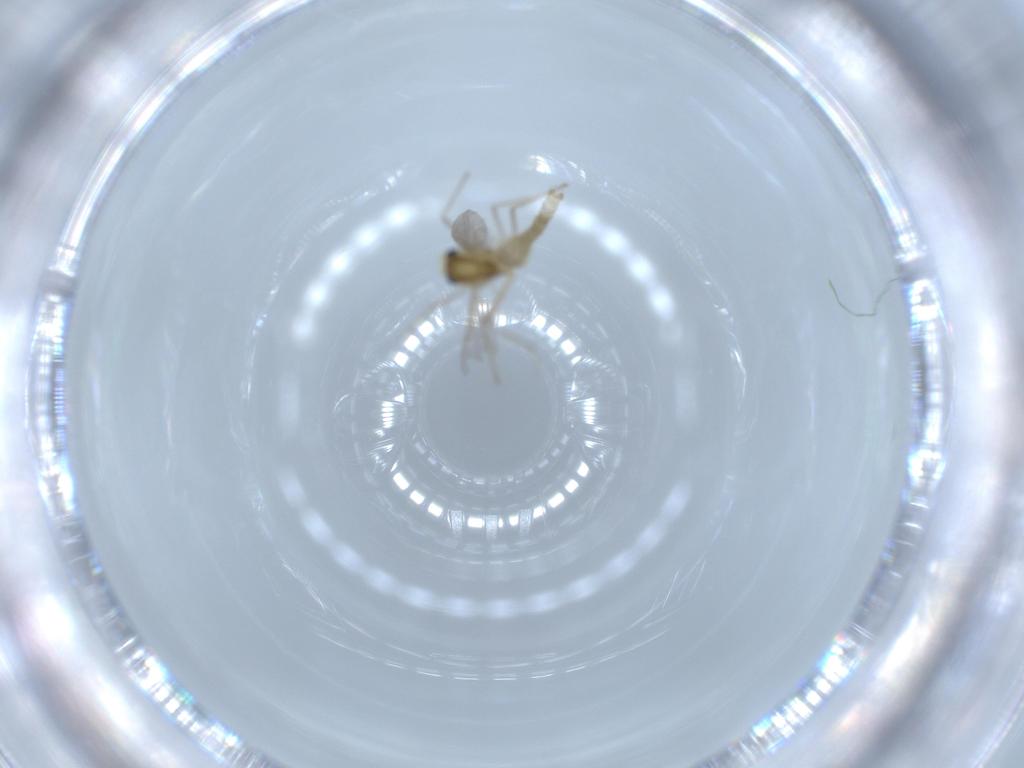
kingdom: Animalia
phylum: Arthropoda
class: Insecta
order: Diptera
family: Chironomidae
